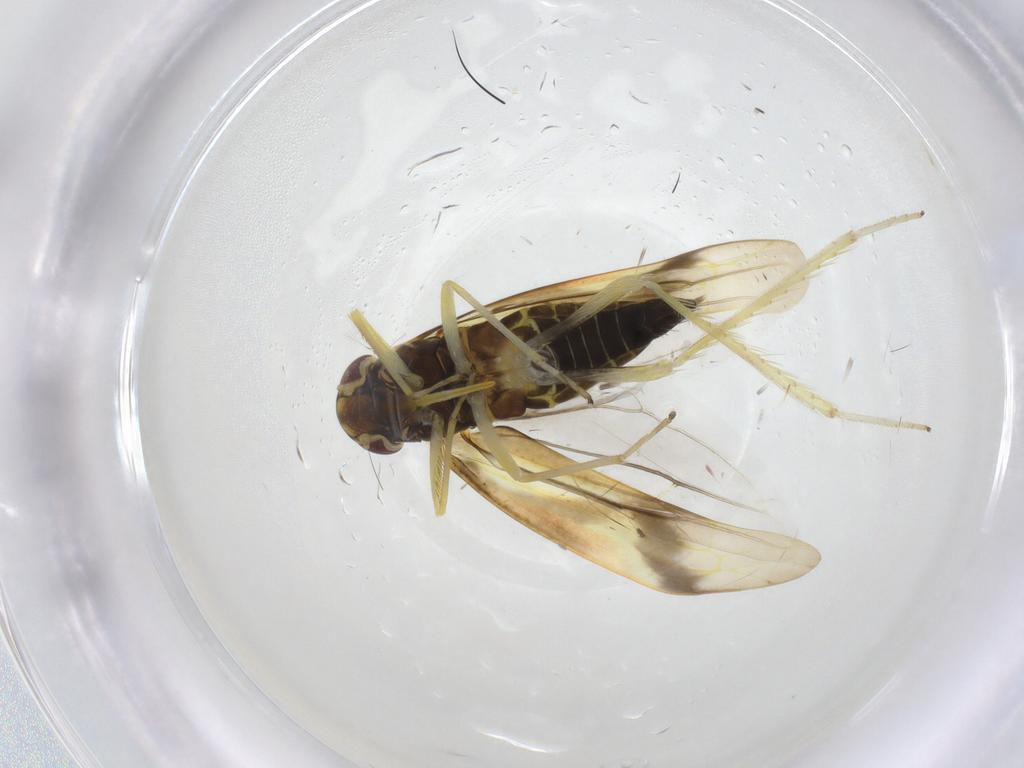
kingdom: Animalia
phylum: Arthropoda
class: Insecta
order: Hemiptera
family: Cicadellidae
